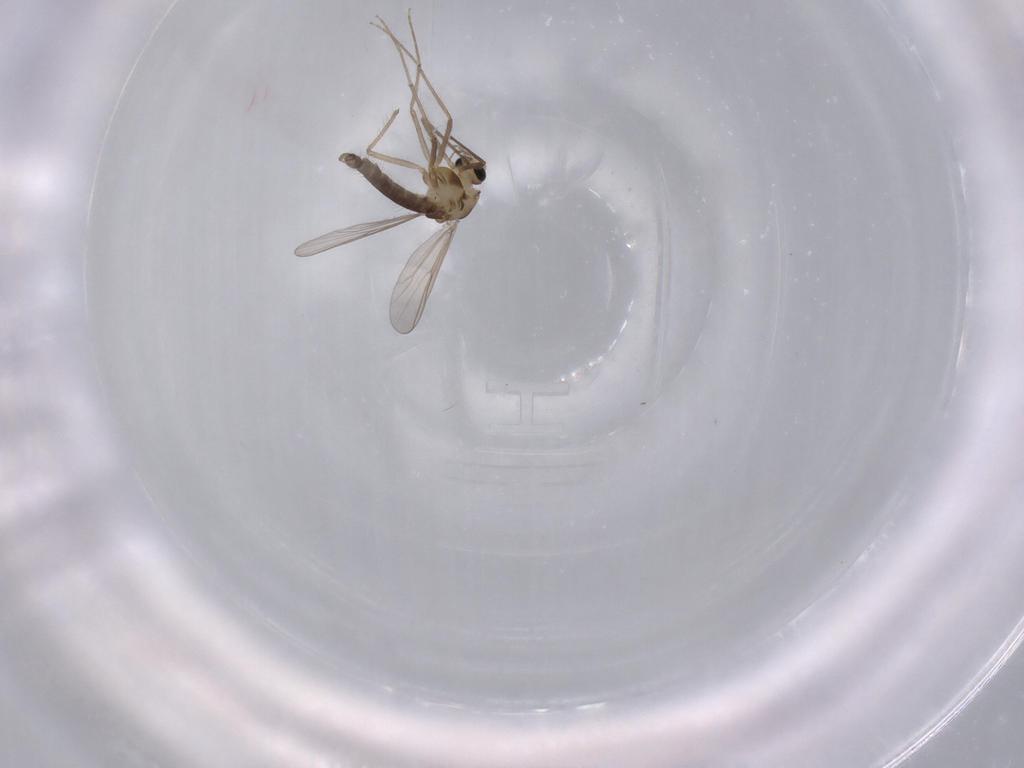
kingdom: Animalia
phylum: Arthropoda
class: Insecta
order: Diptera
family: Chironomidae
